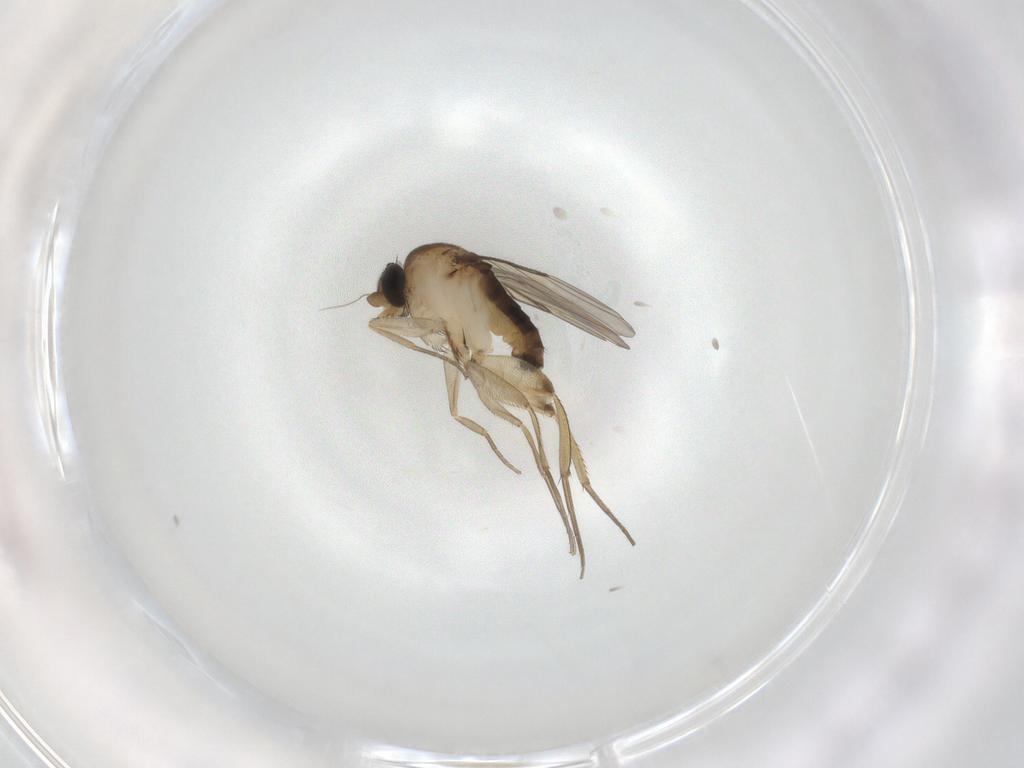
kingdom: Animalia
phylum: Arthropoda
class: Insecta
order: Diptera
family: Phoridae
